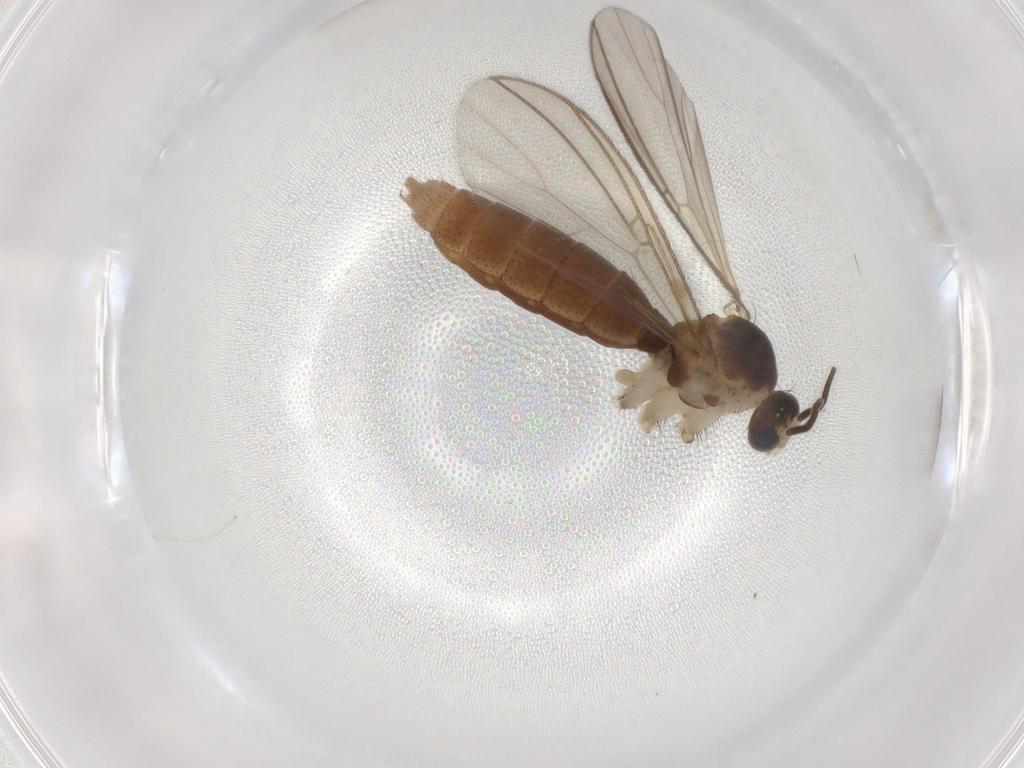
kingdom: Animalia
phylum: Arthropoda
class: Insecta
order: Diptera
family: Mycetophilidae
